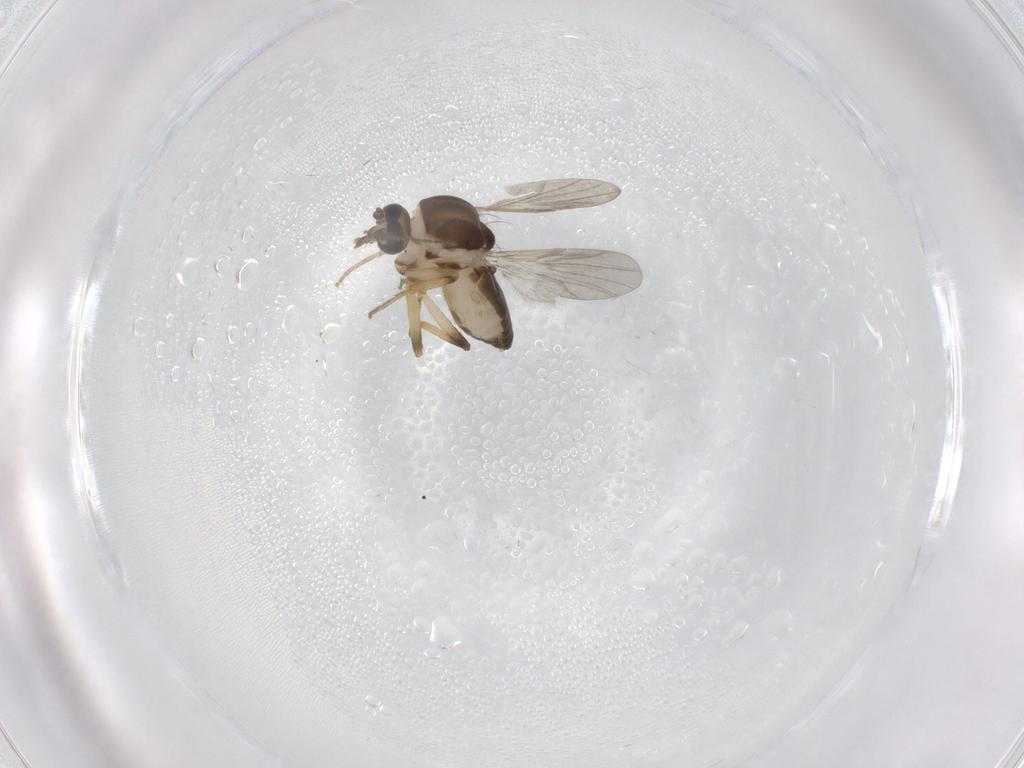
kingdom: Animalia
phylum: Arthropoda
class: Insecta
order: Diptera
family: Ceratopogonidae
